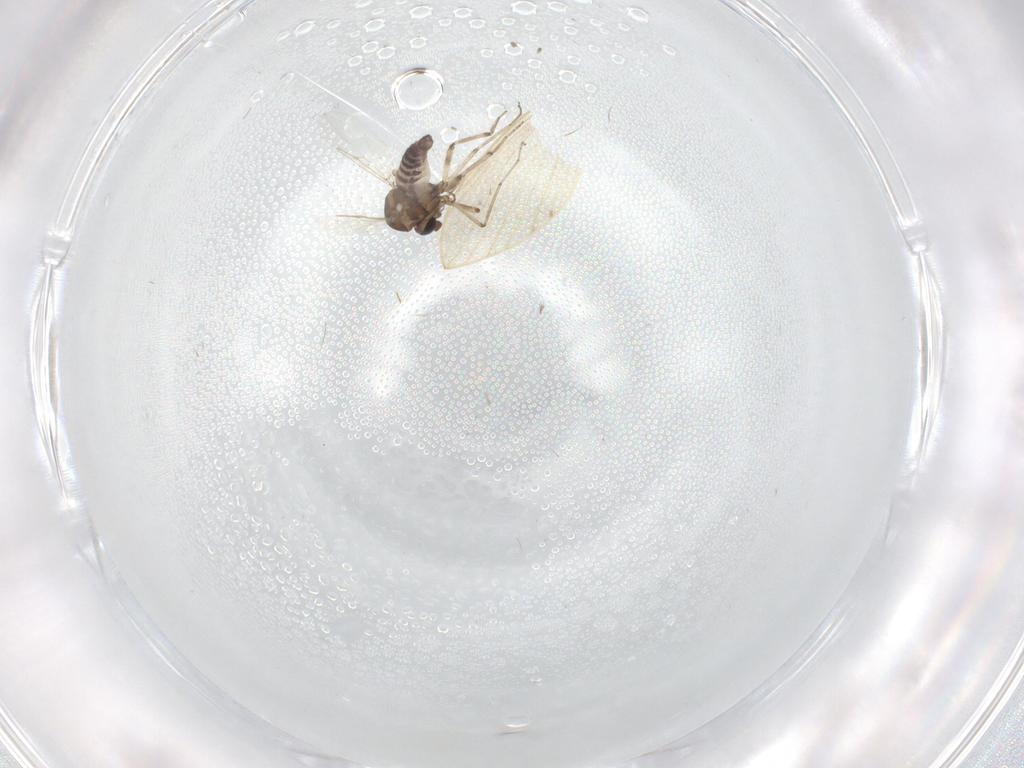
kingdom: Animalia
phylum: Arthropoda
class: Insecta
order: Diptera
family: Ceratopogonidae
